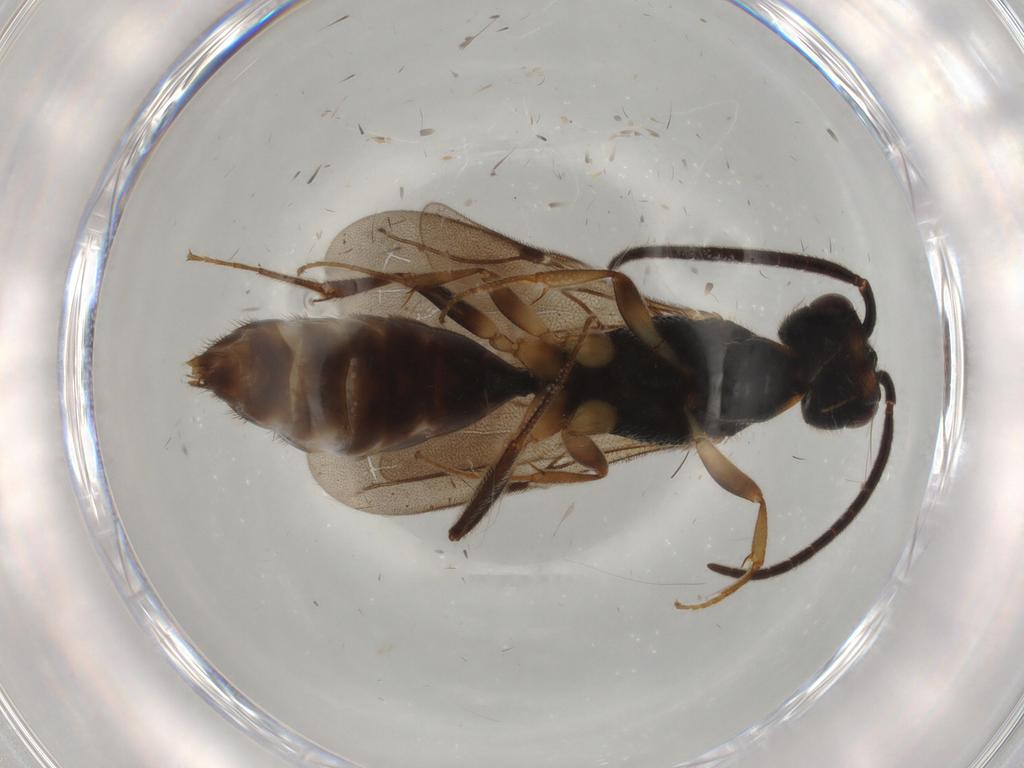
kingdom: Animalia
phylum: Arthropoda
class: Insecta
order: Hymenoptera
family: Bethylidae
